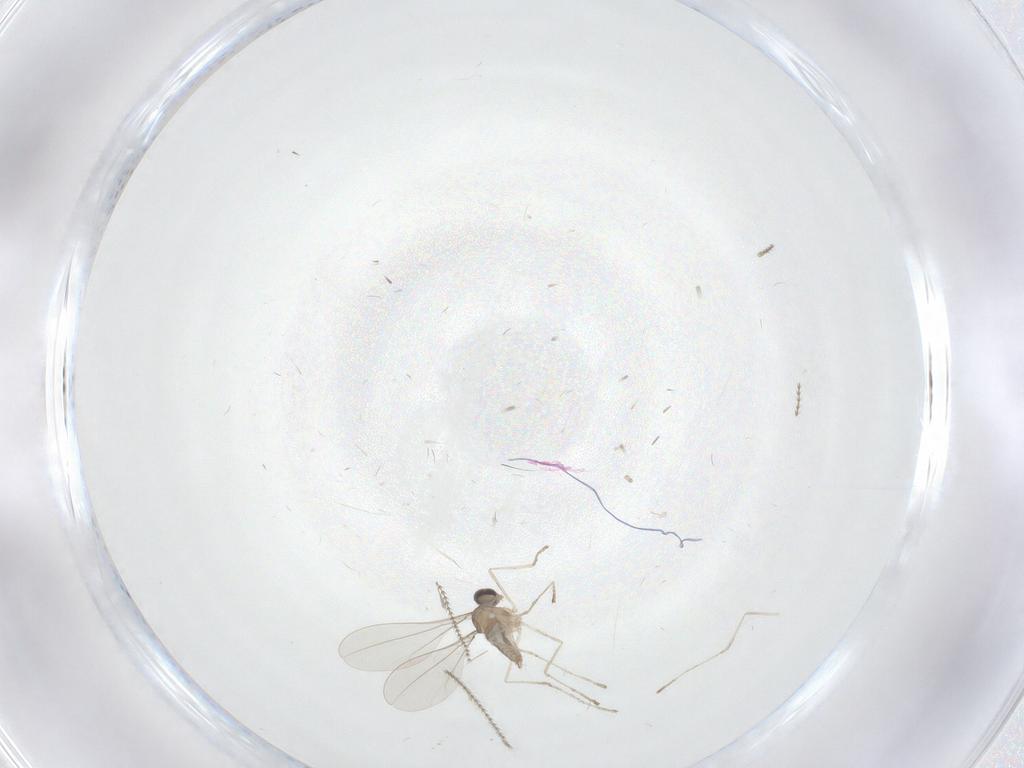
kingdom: Animalia
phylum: Arthropoda
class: Insecta
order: Diptera
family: Cecidomyiidae
